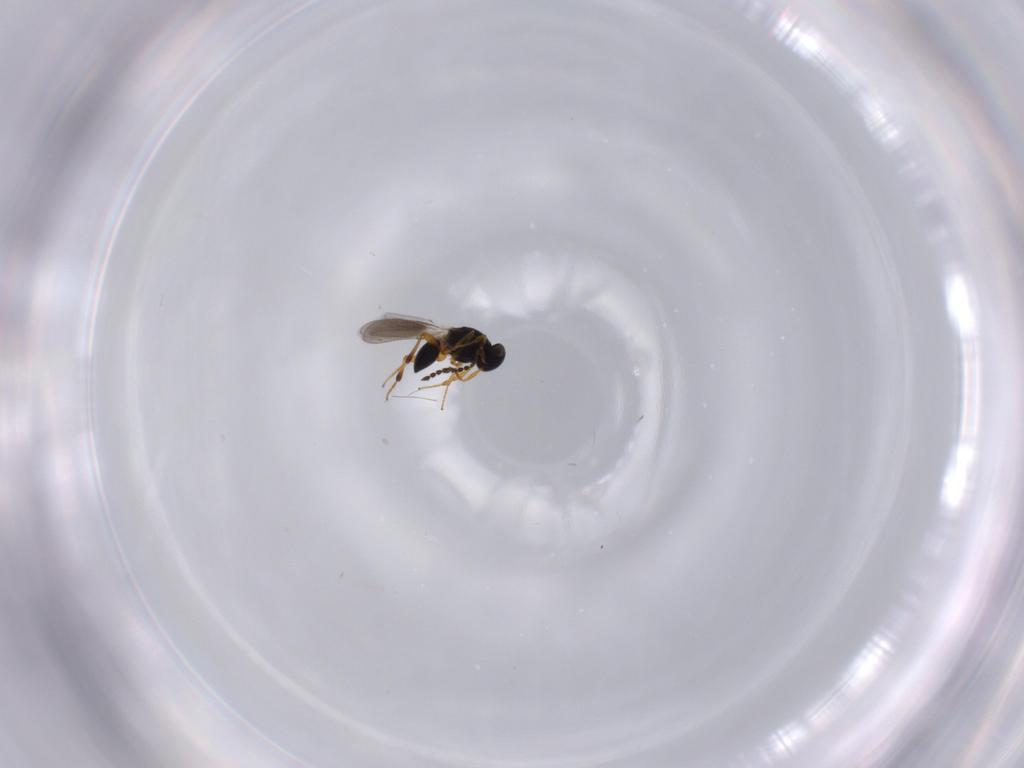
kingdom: Animalia
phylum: Arthropoda
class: Insecta
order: Hymenoptera
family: Platygastridae
